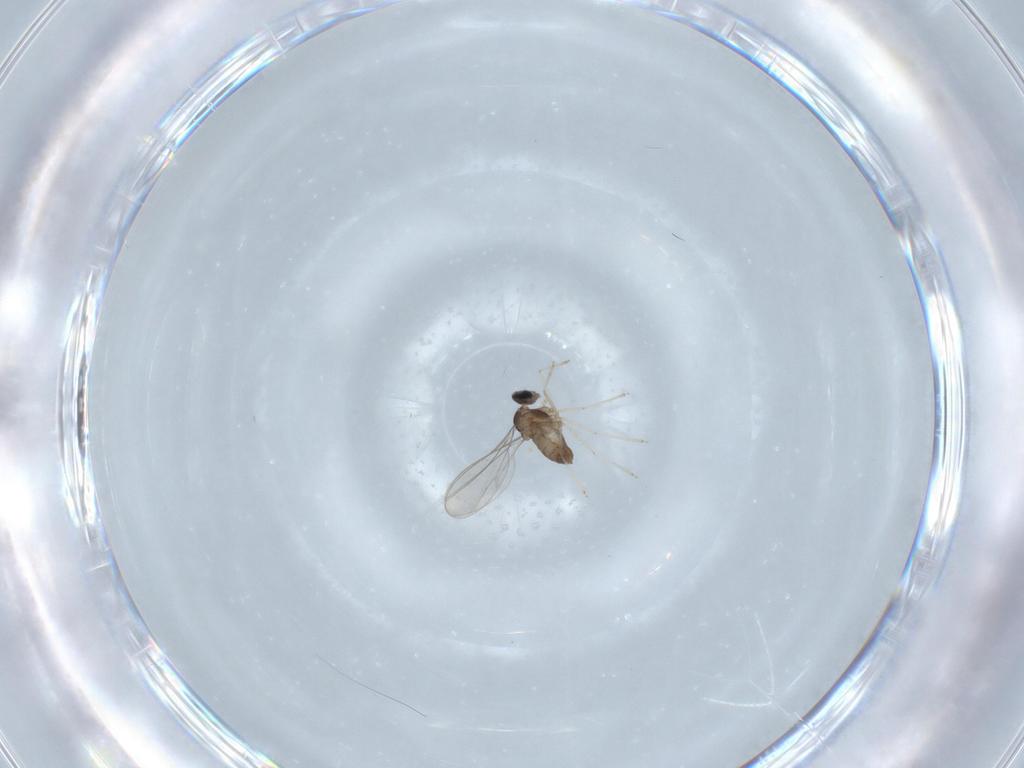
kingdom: Animalia
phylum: Arthropoda
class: Insecta
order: Diptera
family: Cecidomyiidae
